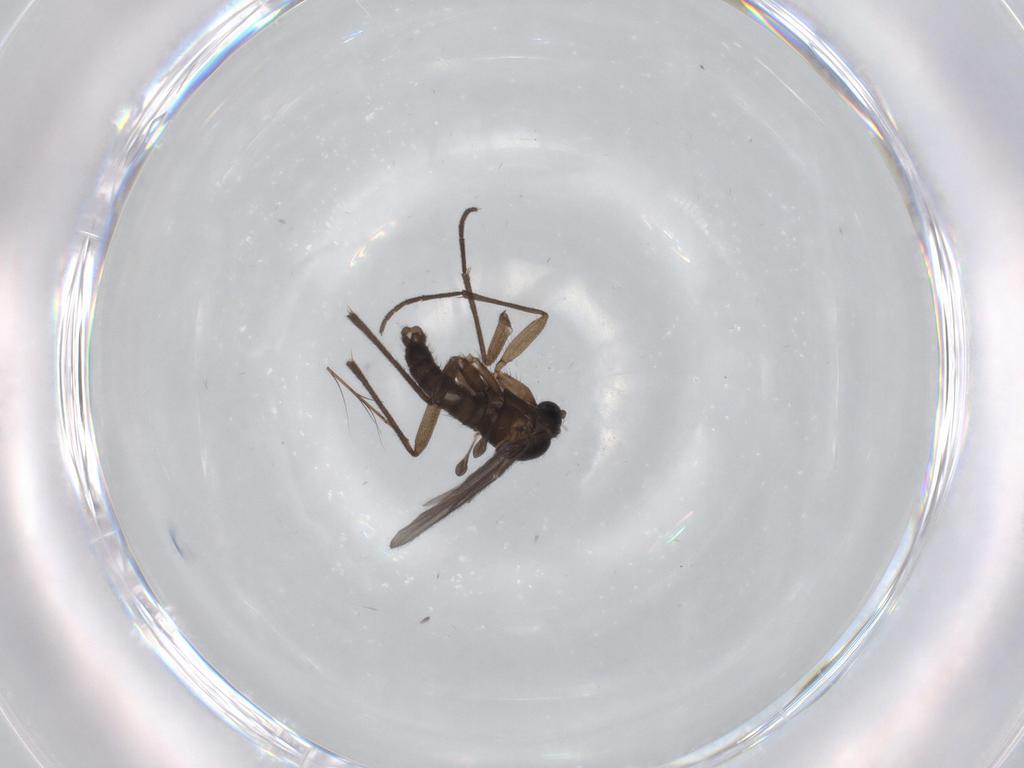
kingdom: Animalia
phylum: Arthropoda
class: Insecta
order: Diptera
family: Sciaridae
